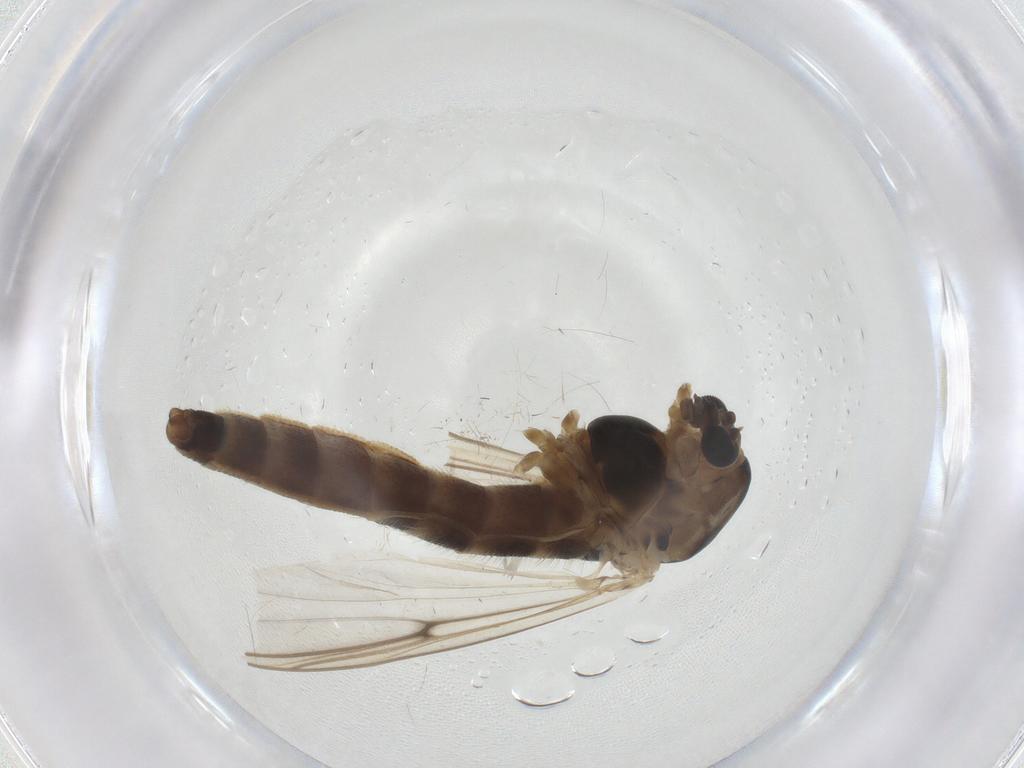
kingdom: Animalia
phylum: Arthropoda
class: Insecta
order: Diptera
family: Chironomidae
